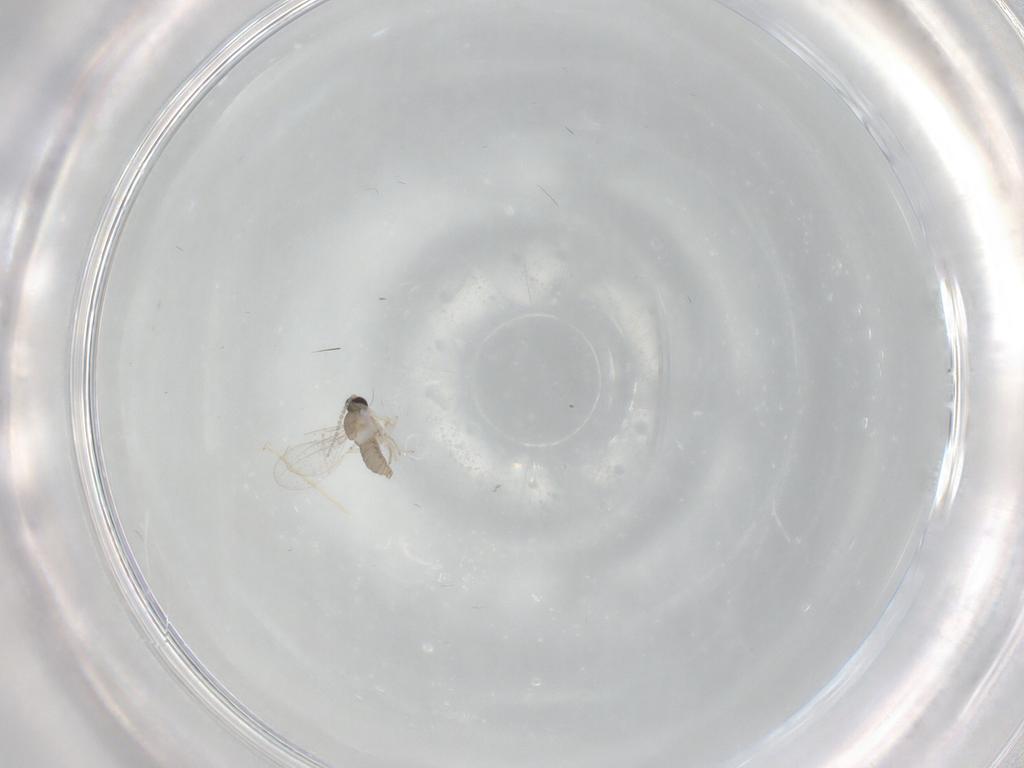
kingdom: Animalia
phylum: Arthropoda
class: Insecta
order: Diptera
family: Cecidomyiidae
